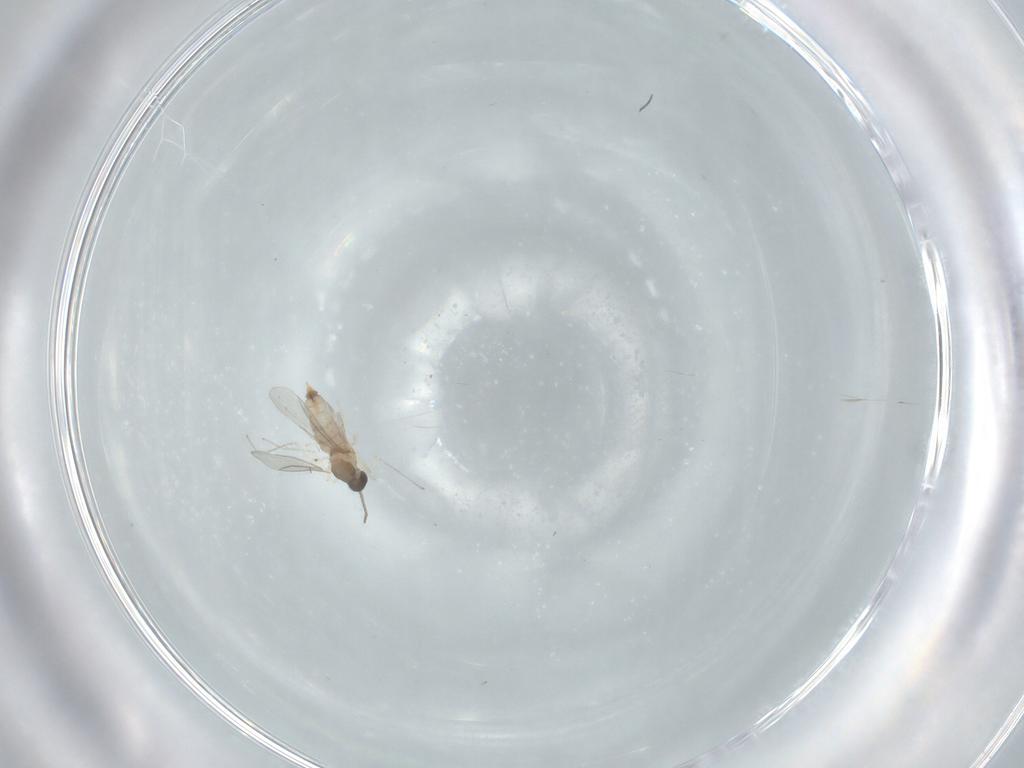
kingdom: Animalia
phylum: Arthropoda
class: Insecta
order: Diptera
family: Cecidomyiidae
